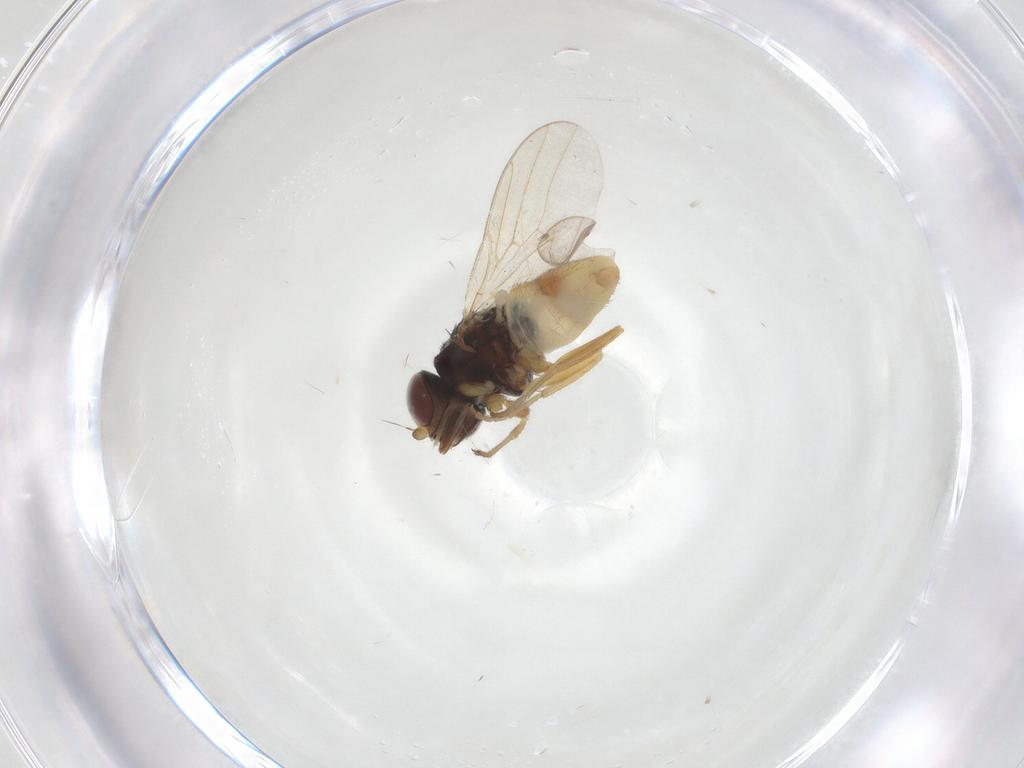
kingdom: Animalia
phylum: Arthropoda
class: Insecta
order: Diptera
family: Chloropidae
